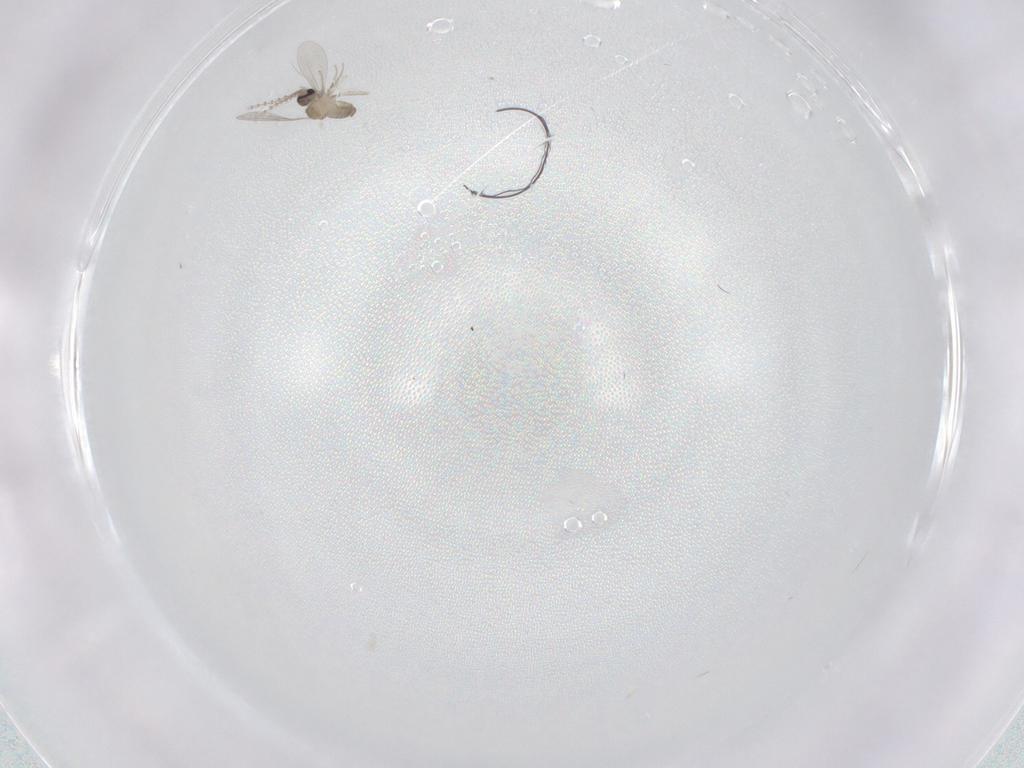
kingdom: Animalia
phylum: Arthropoda
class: Insecta
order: Diptera
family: Cecidomyiidae
